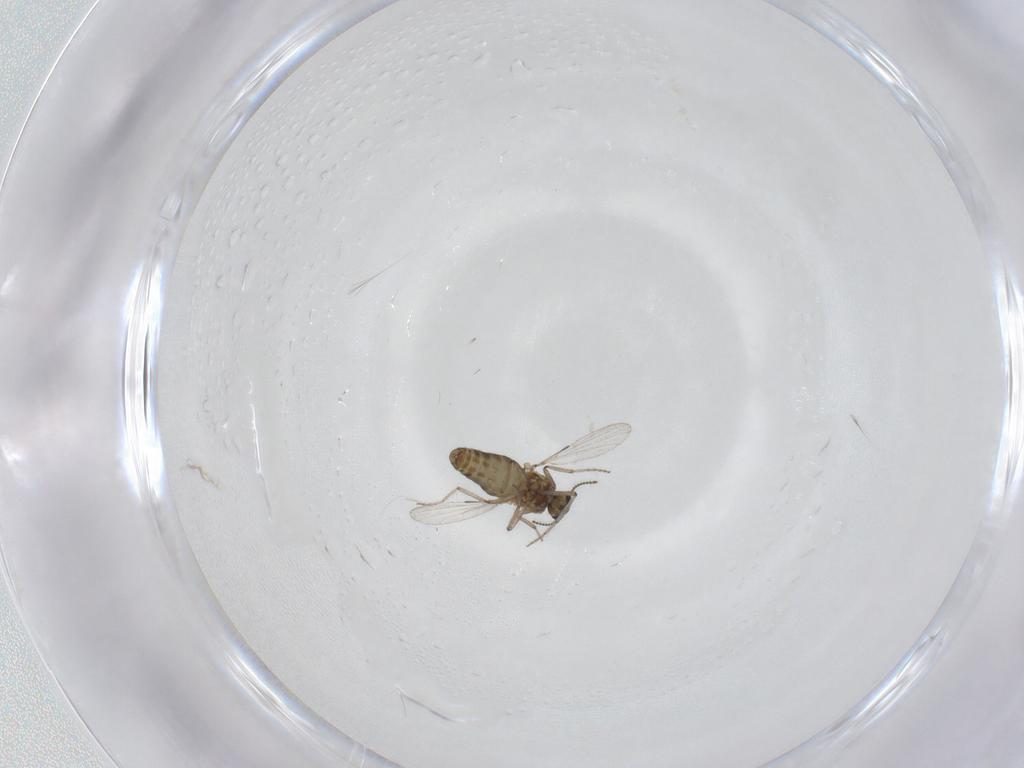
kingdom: Animalia
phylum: Arthropoda
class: Insecta
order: Diptera
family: Ceratopogonidae
